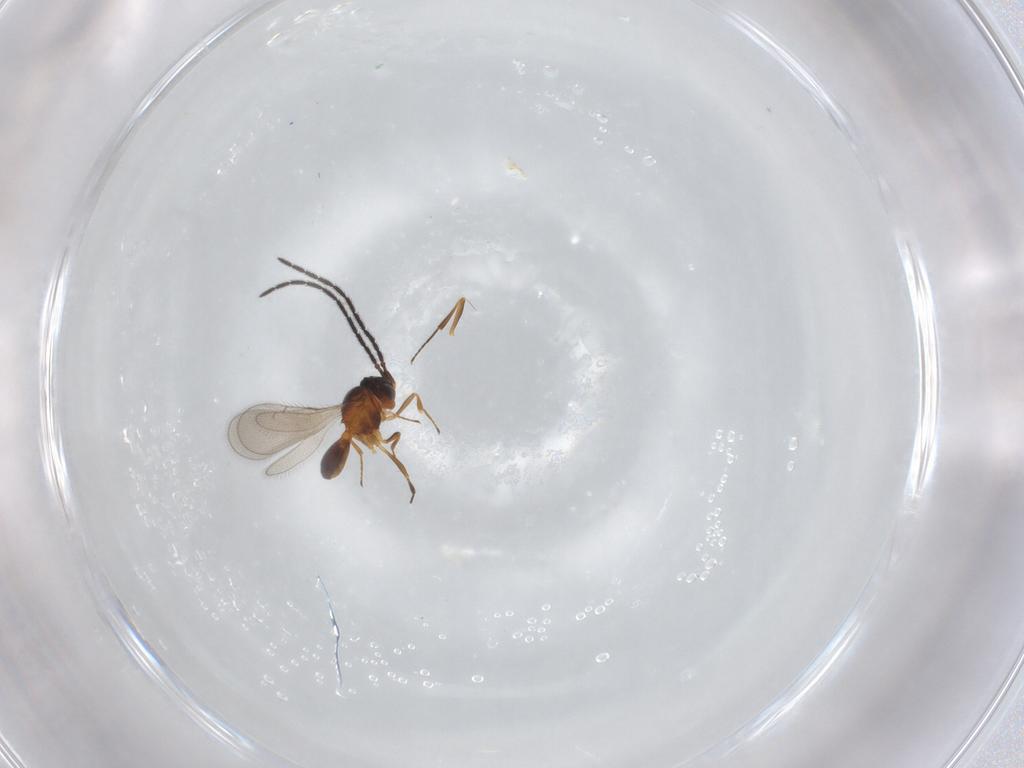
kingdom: Animalia
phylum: Arthropoda
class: Insecta
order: Hymenoptera
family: Scelionidae
